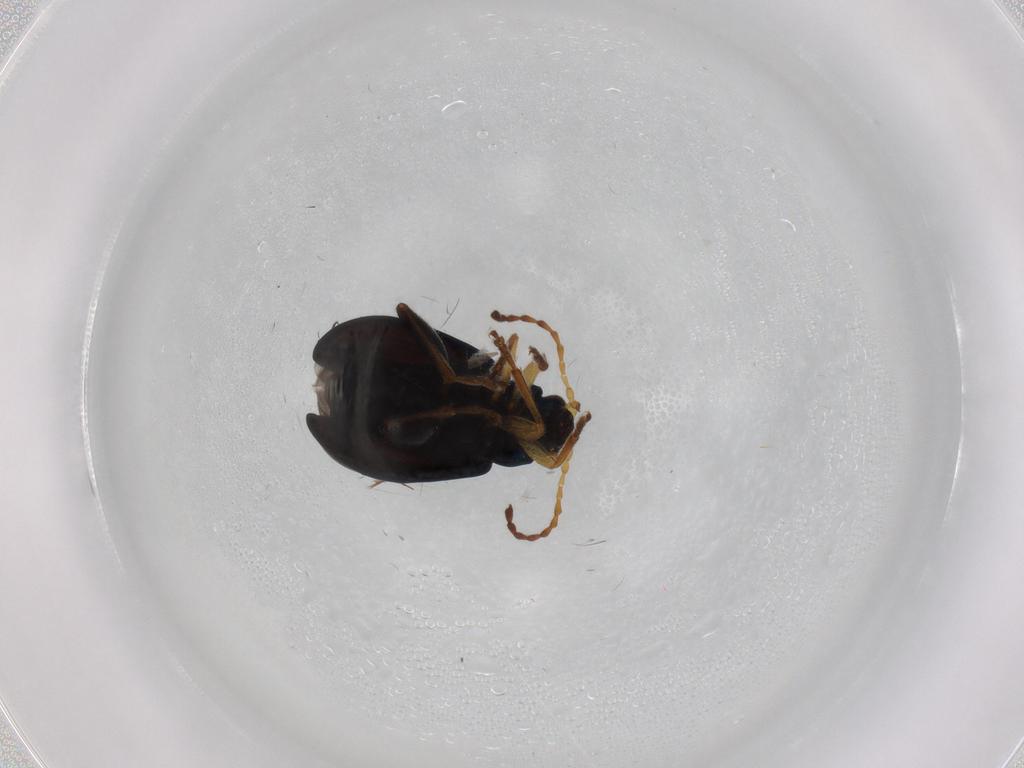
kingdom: Animalia
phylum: Arthropoda
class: Insecta
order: Coleoptera
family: Chrysomelidae
